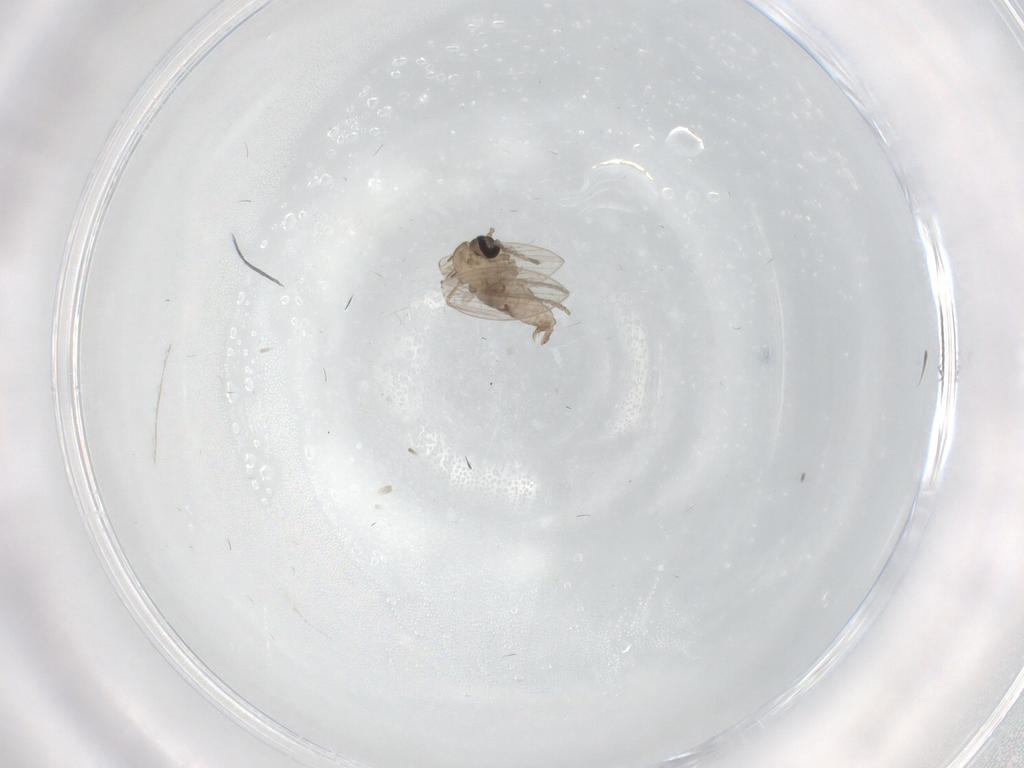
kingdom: Animalia
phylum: Arthropoda
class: Insecta
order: Diptera
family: Psychodidae
